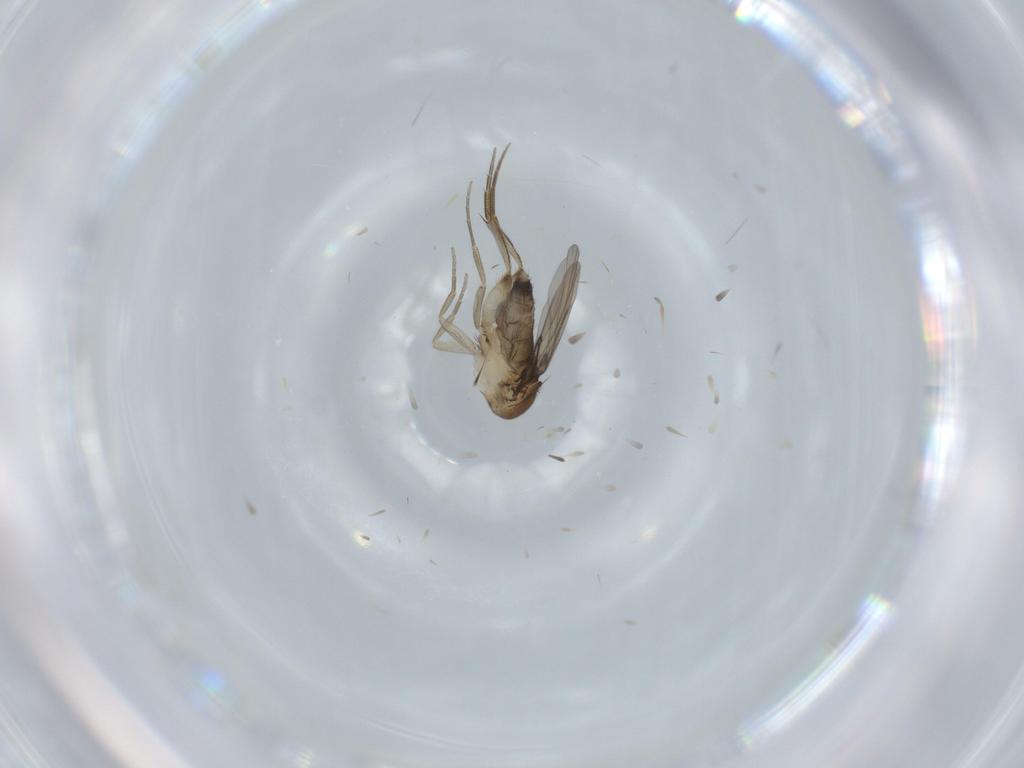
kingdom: Animalia
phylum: Arthropoda
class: Insecta
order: Diptera
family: Phoridae
